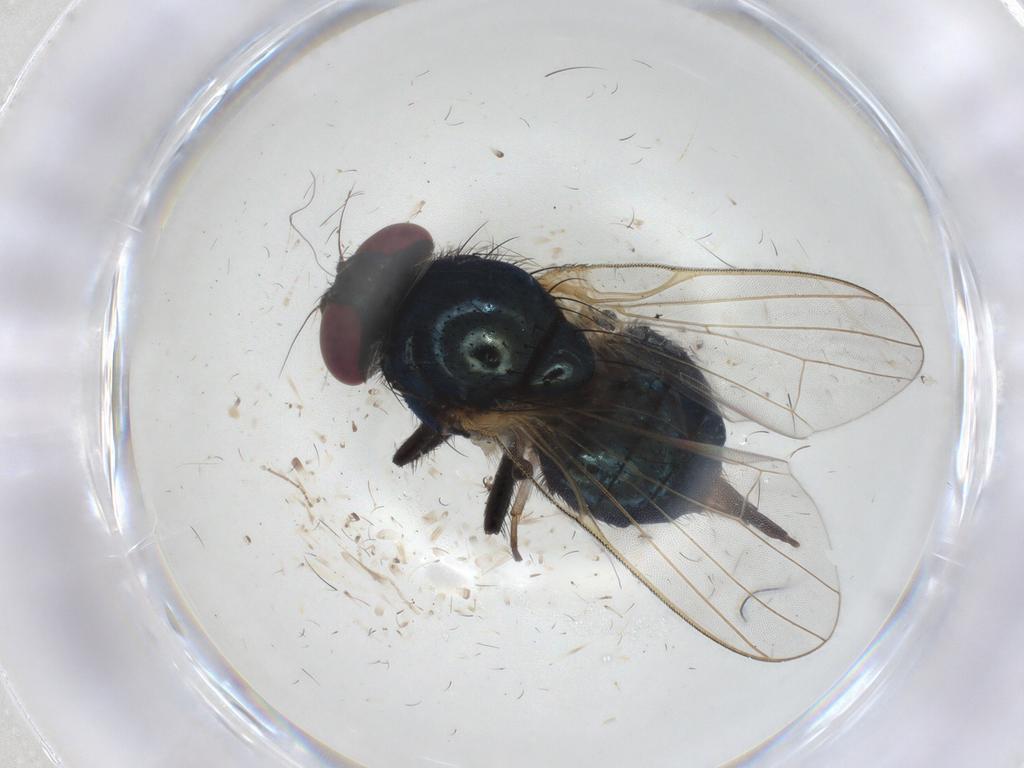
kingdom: Animalia
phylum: Arthropoda
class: Insecta
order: Diptera
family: Lonchaeidae
